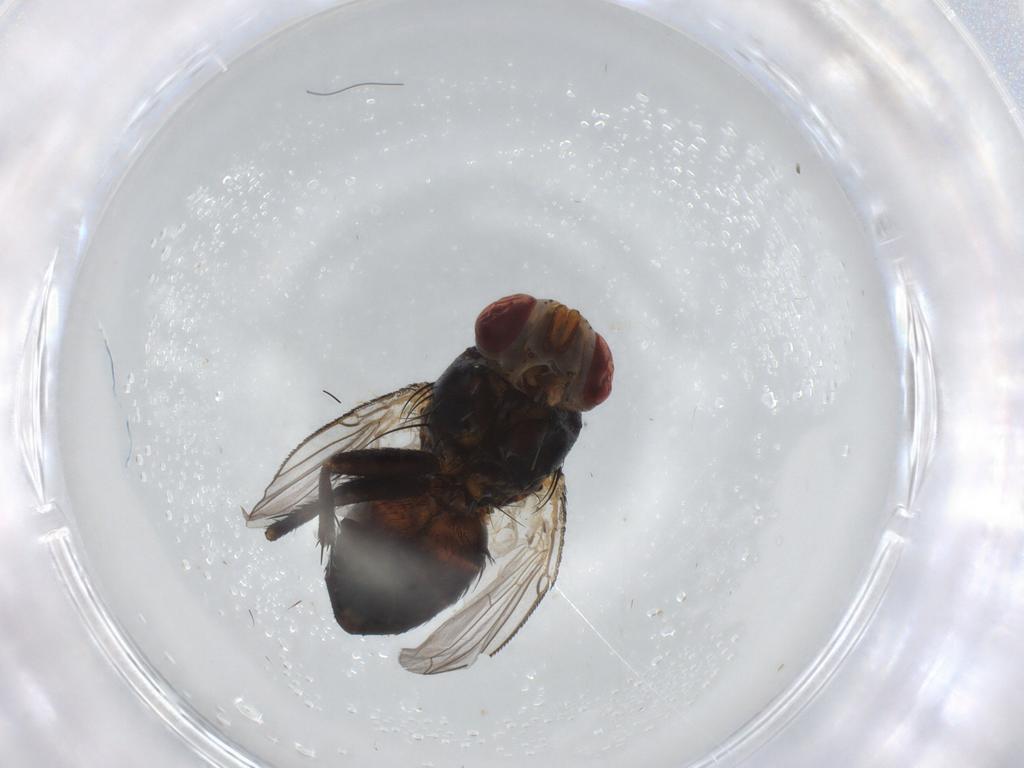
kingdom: Animalia
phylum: Arthropoda
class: Insecta
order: Diptera
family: Muscidae
